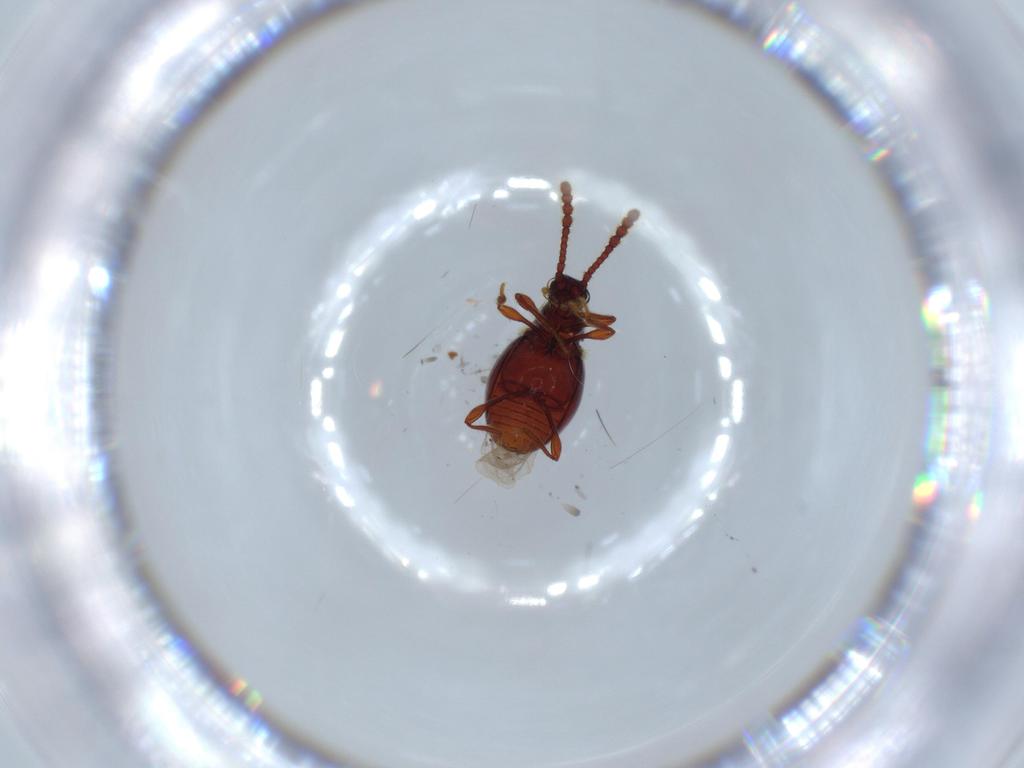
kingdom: Animalia
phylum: Arthropoda
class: Insecta
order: Coleoptera
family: Staphylinidae
